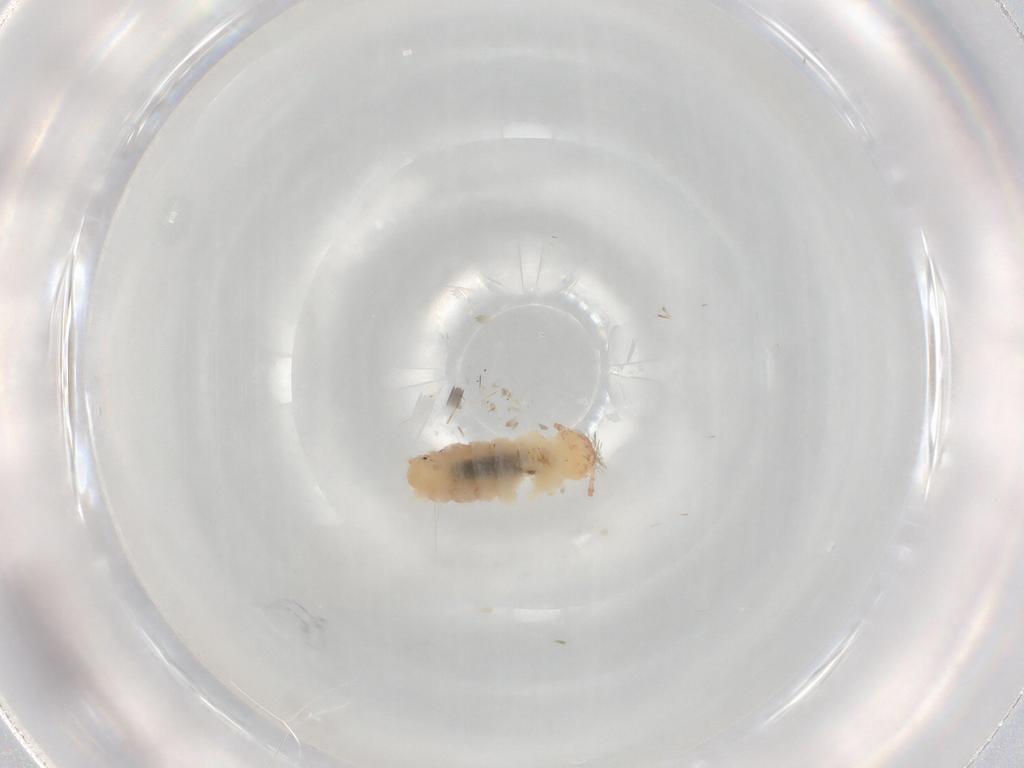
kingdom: Animalia
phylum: Arthropoda
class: Diplopoda
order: Polyxenida
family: Polyxenidae
